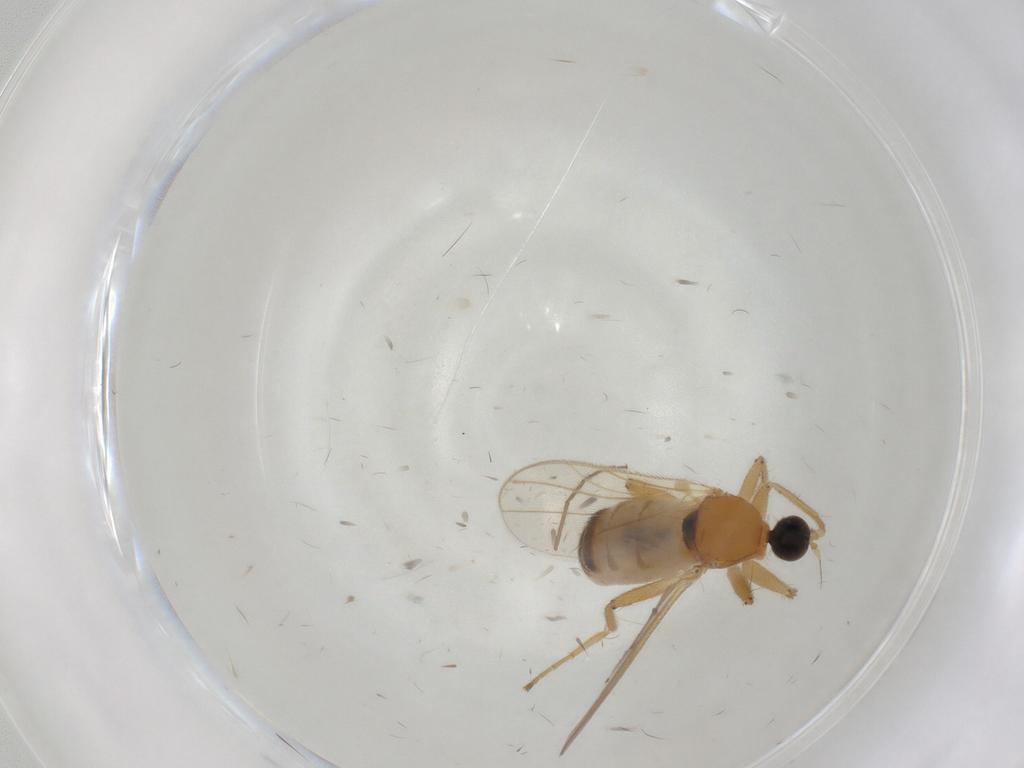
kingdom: Animalia
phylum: Arthropoda
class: Insecta
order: Diptera
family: Hybotidae
